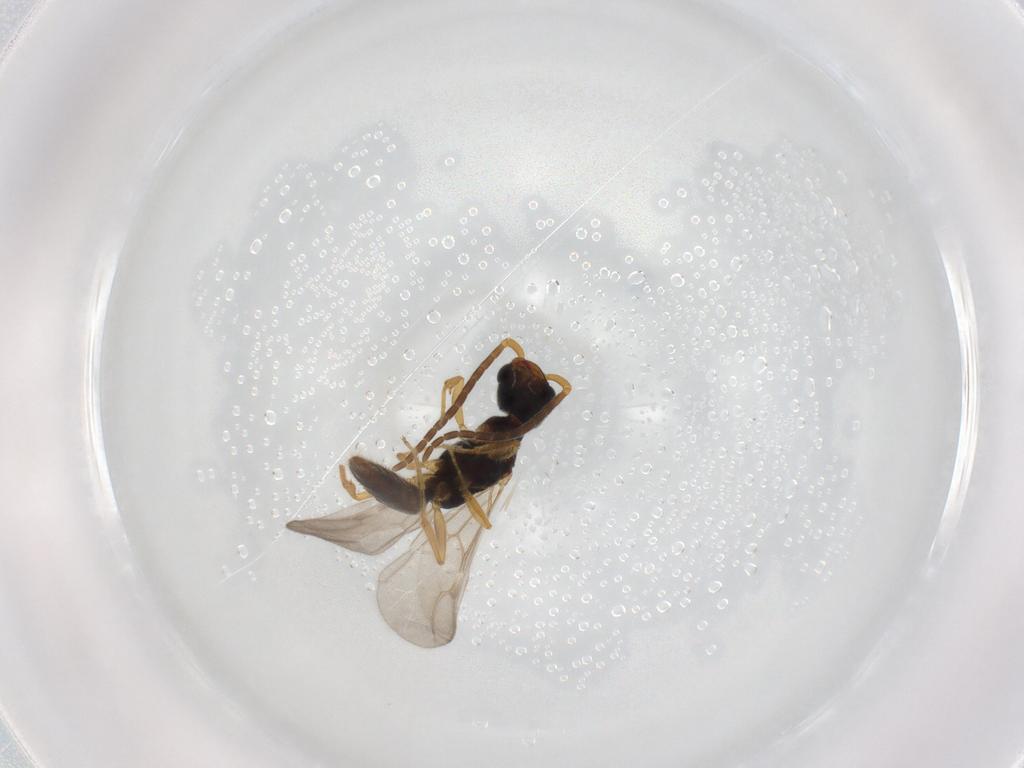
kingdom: Animalia
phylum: Arthropoda
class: Insecta
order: Hymenoptera
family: Bethylidae
